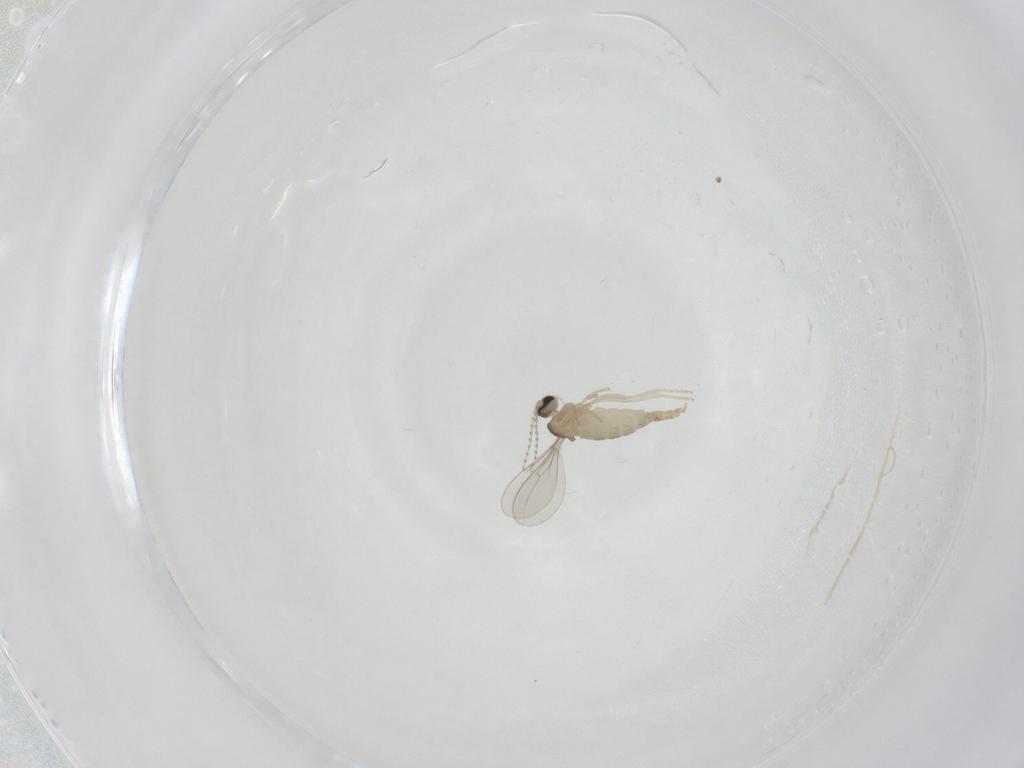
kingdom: Animalia
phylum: Arthropoda
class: Insecta
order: Diptera
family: Cecidomyiidae
